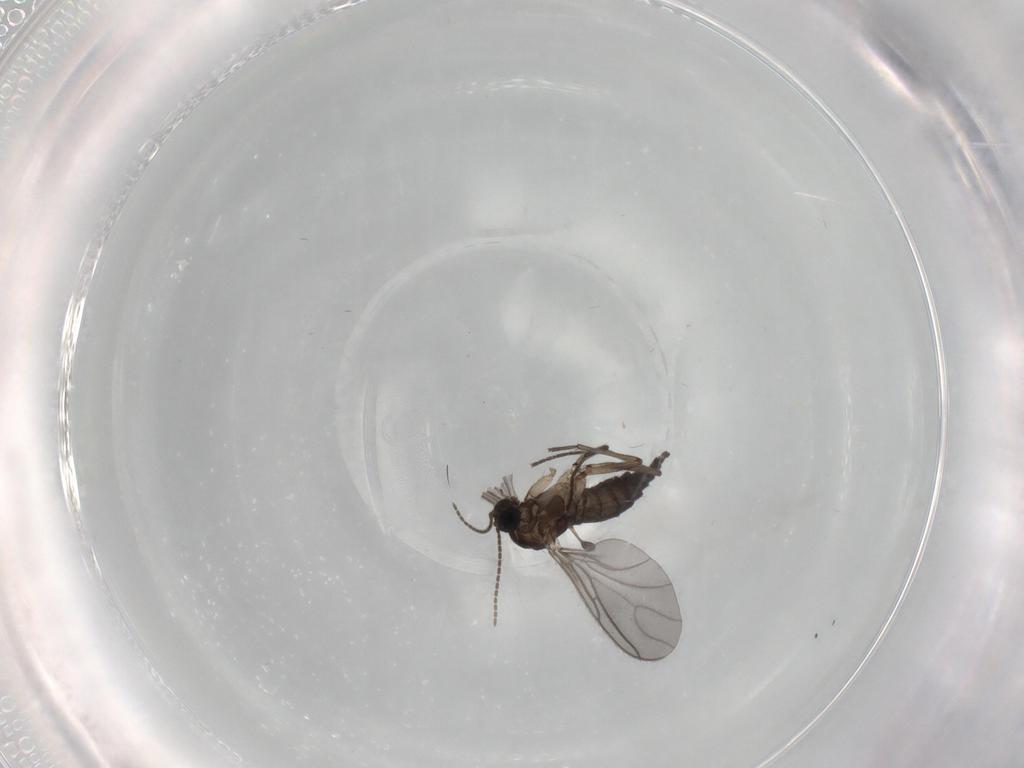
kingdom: Animalia
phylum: Arthropoda
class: Insecta
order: Diptera
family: Sciaridae
